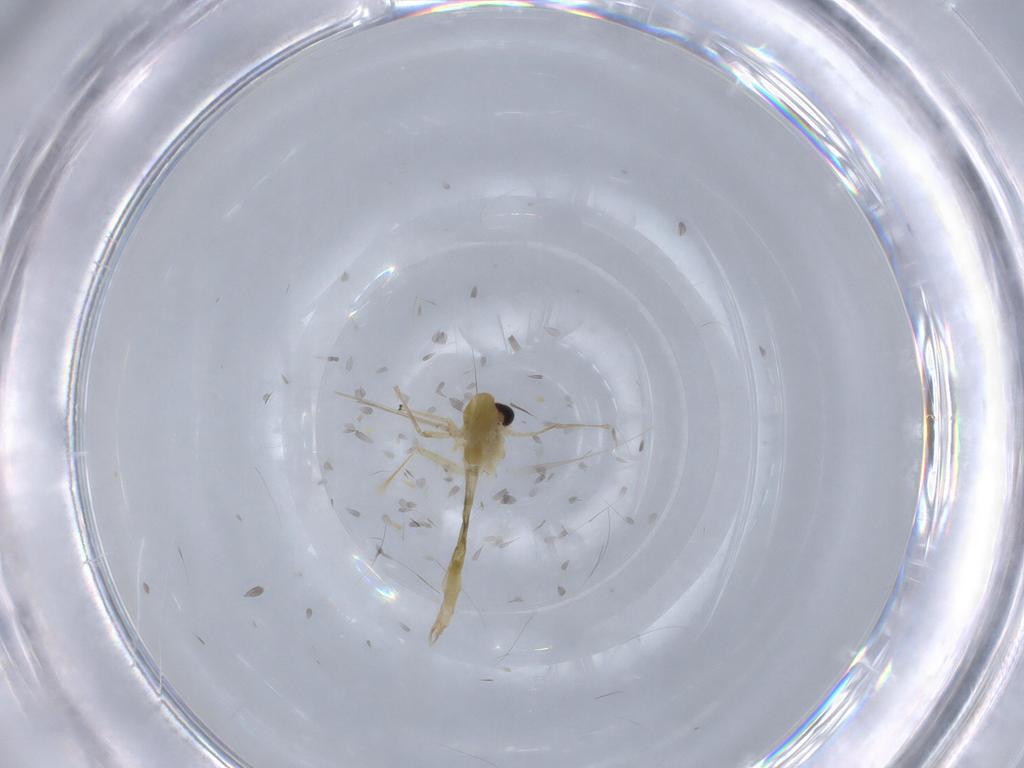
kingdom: Animalia
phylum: Arthropoda
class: Insecta
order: Diptera
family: Chironomidae
